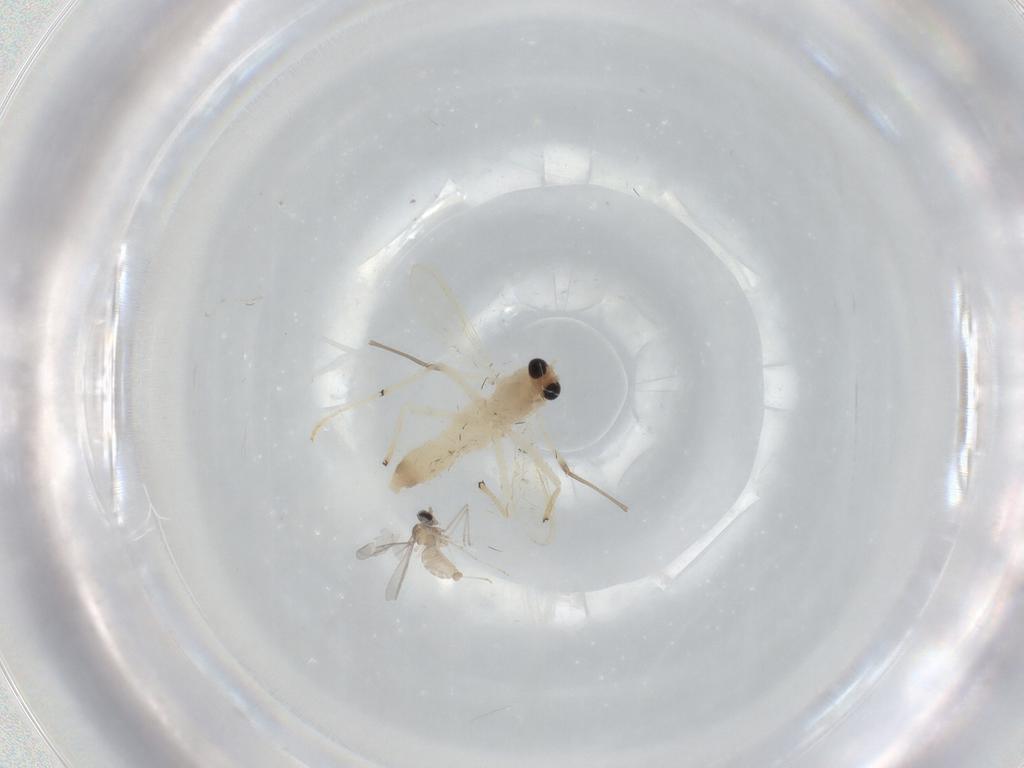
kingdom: Animalia
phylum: Arthropoda
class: Insecta
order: Diptera
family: Chironomidae
